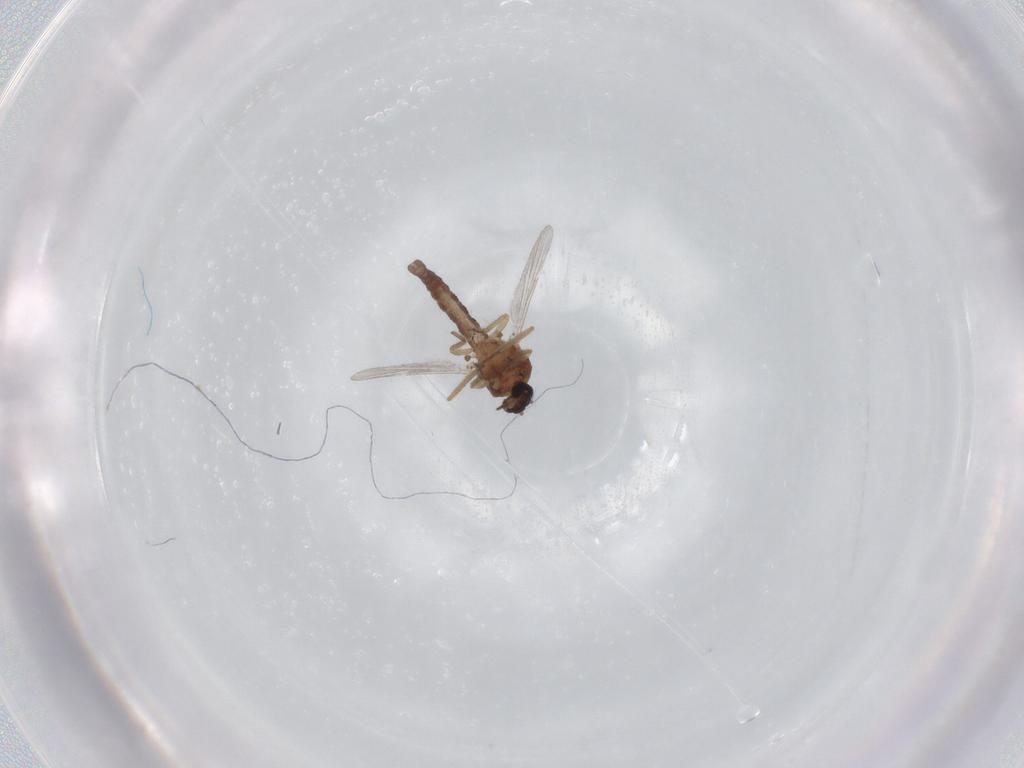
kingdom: Animalia
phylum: Arthropoda
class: Insecta
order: Diptera
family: Ceratopogonidae
